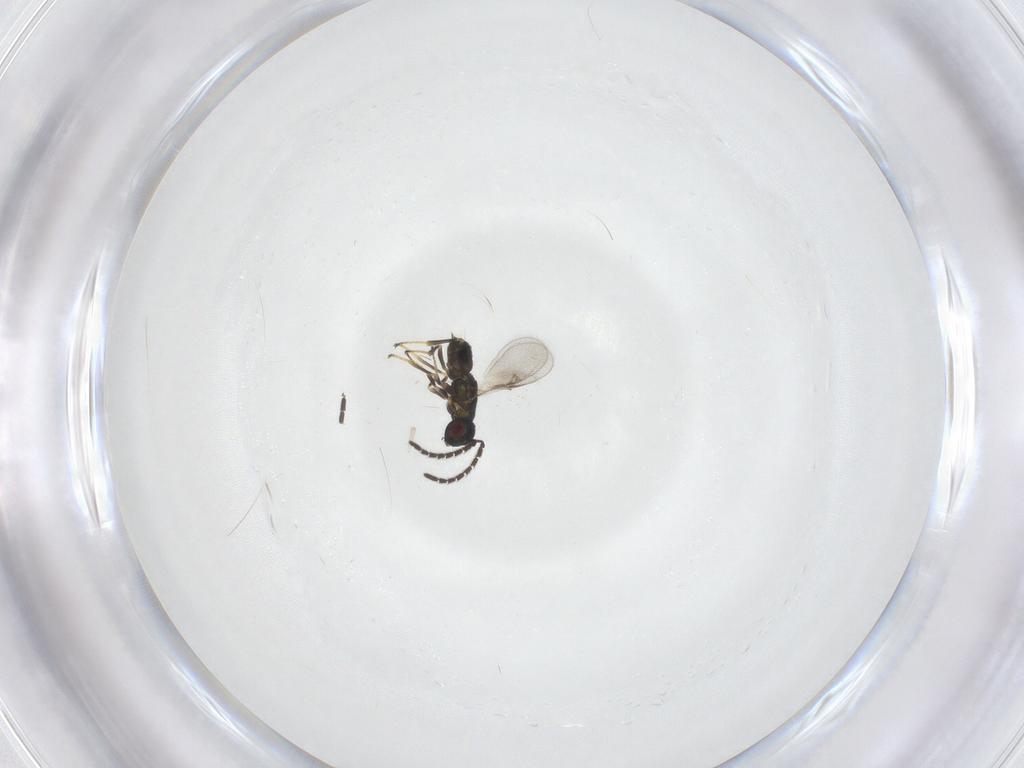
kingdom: Animalia
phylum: Arthropoda
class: Insecta
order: Hymenoptera
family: Encyrtidae
